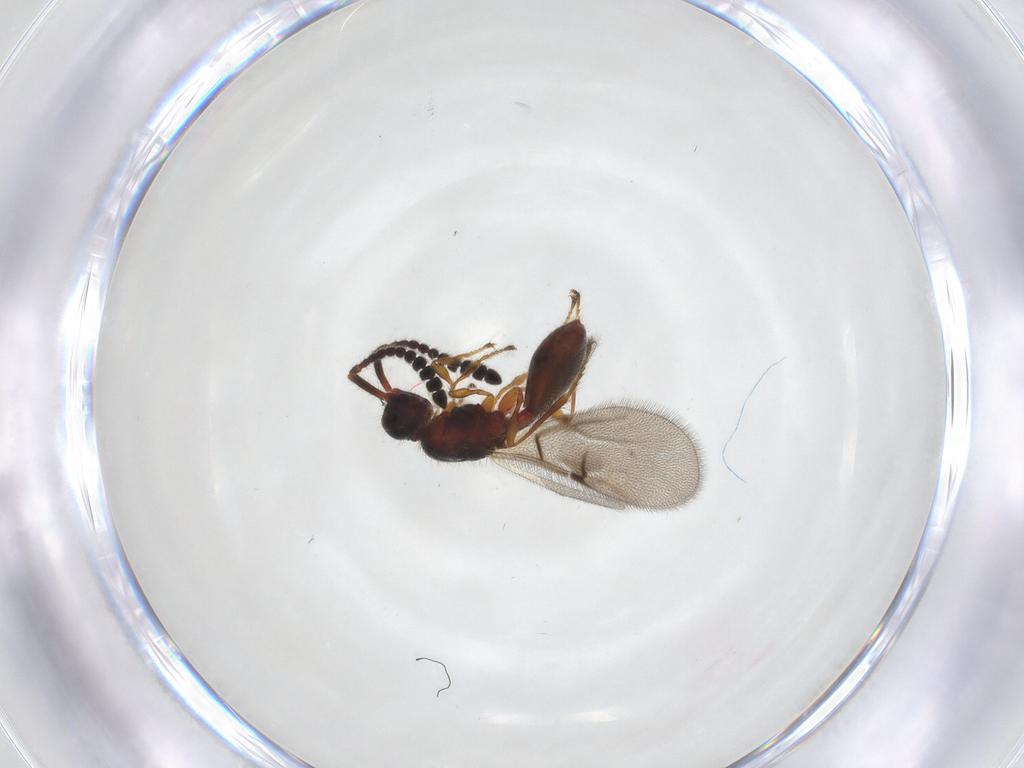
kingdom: Animalia
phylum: Arthropoda
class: Insecta
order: Hymenoptera
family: Diapriidae
